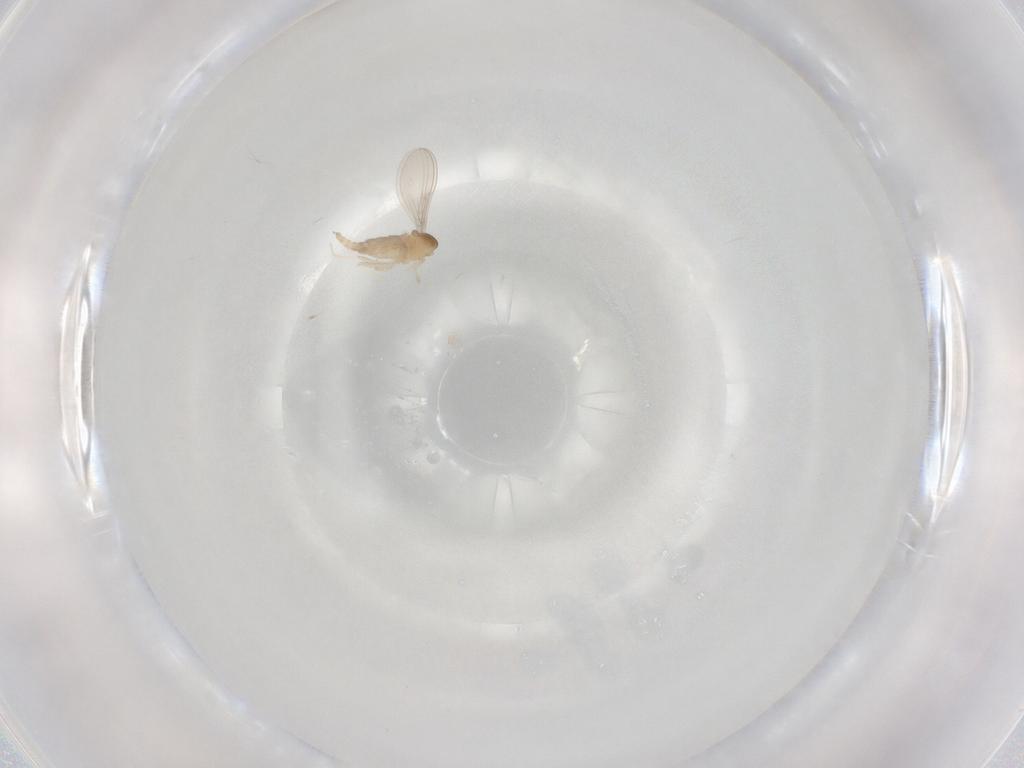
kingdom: Animalia
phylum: Arthropoda
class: Insecta
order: Diptera
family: Cecidomyiidae
